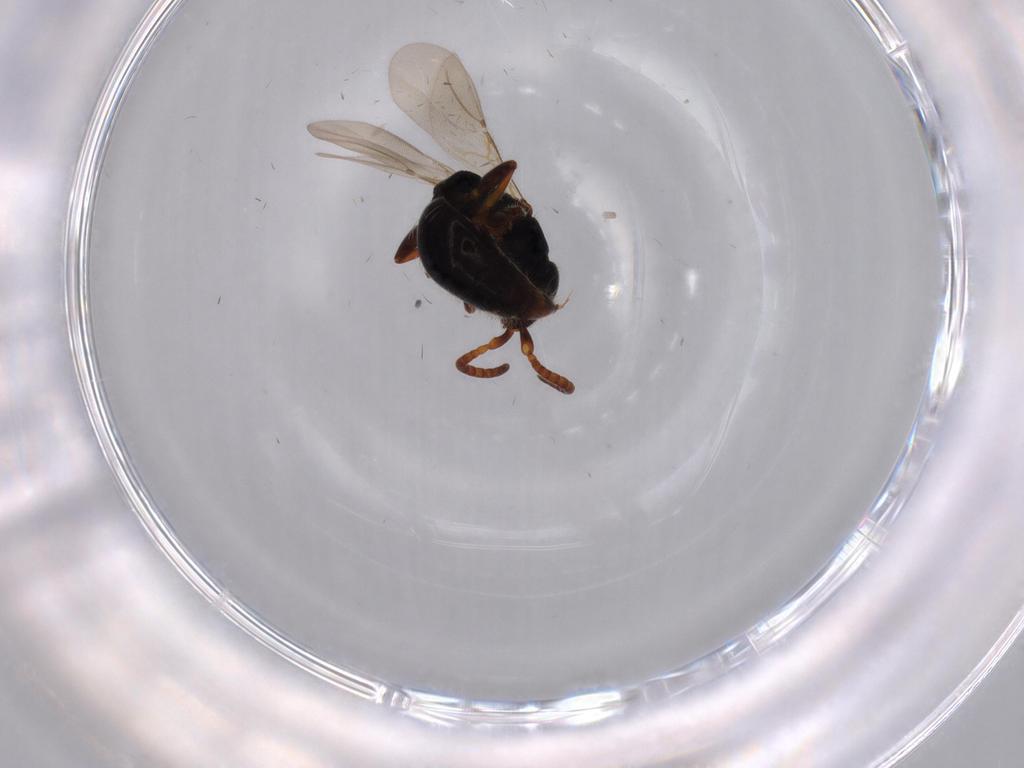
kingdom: Animalia
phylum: Arthropoda
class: Insecta
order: Hymenoptera
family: Bethylidae
